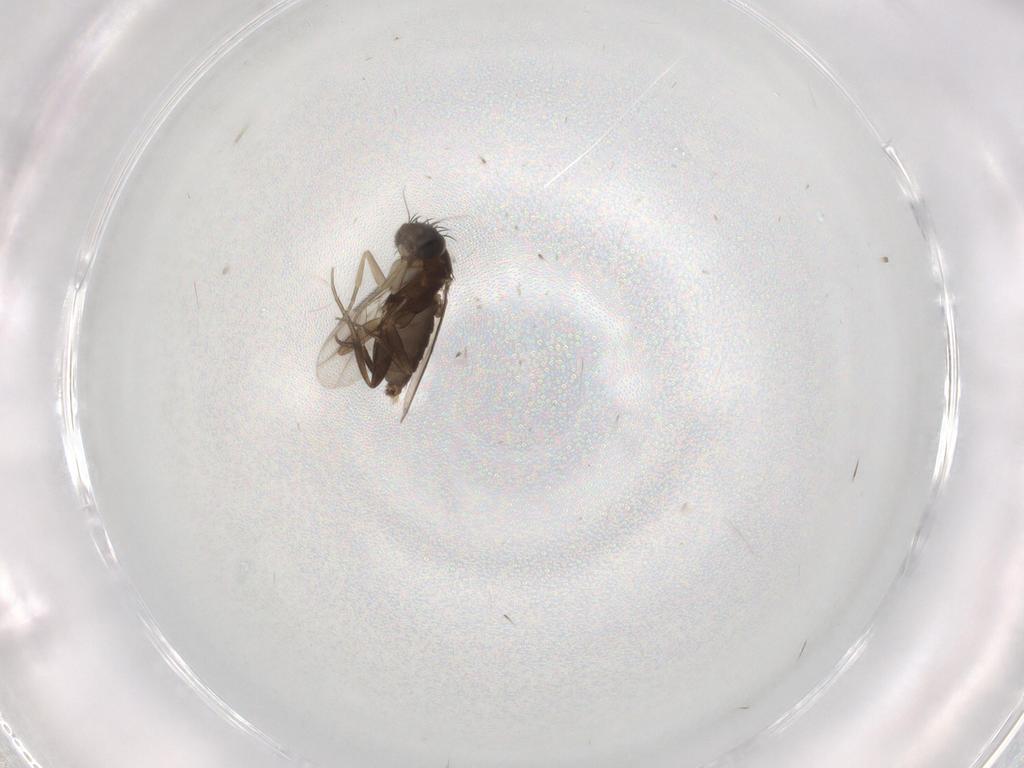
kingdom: Animalia
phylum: Arthropoda
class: Insecta
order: Diptera
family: Phoridae
